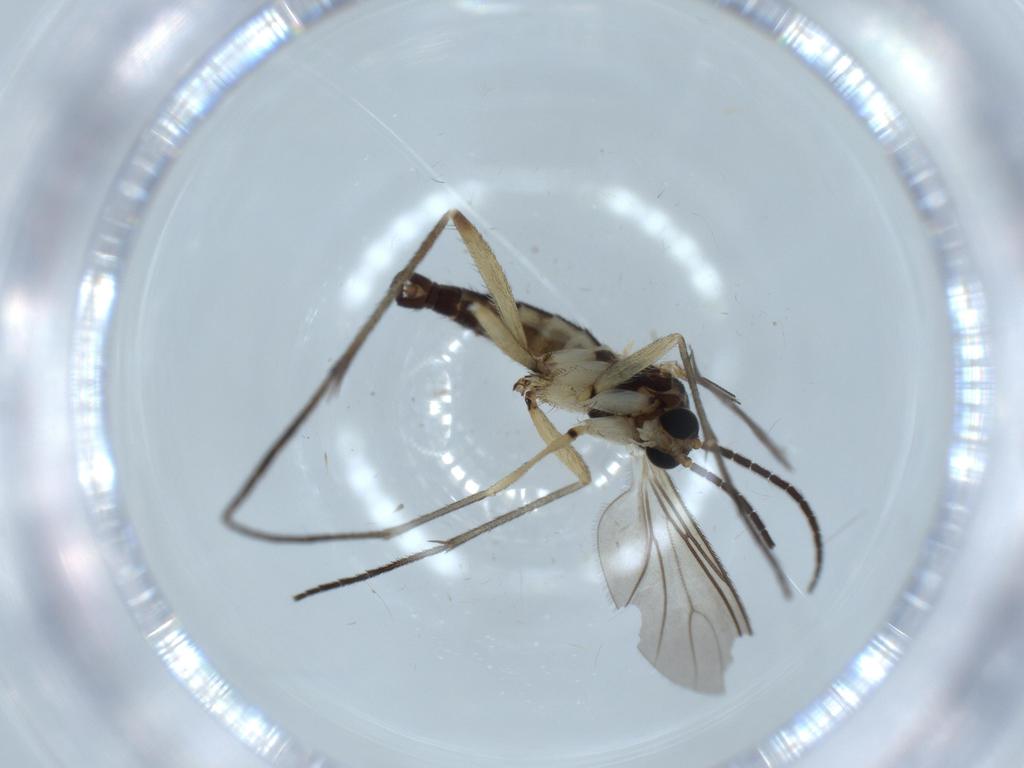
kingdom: Animalia
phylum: Arthropoda
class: Insecta
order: Diptera
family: Sciaridae
